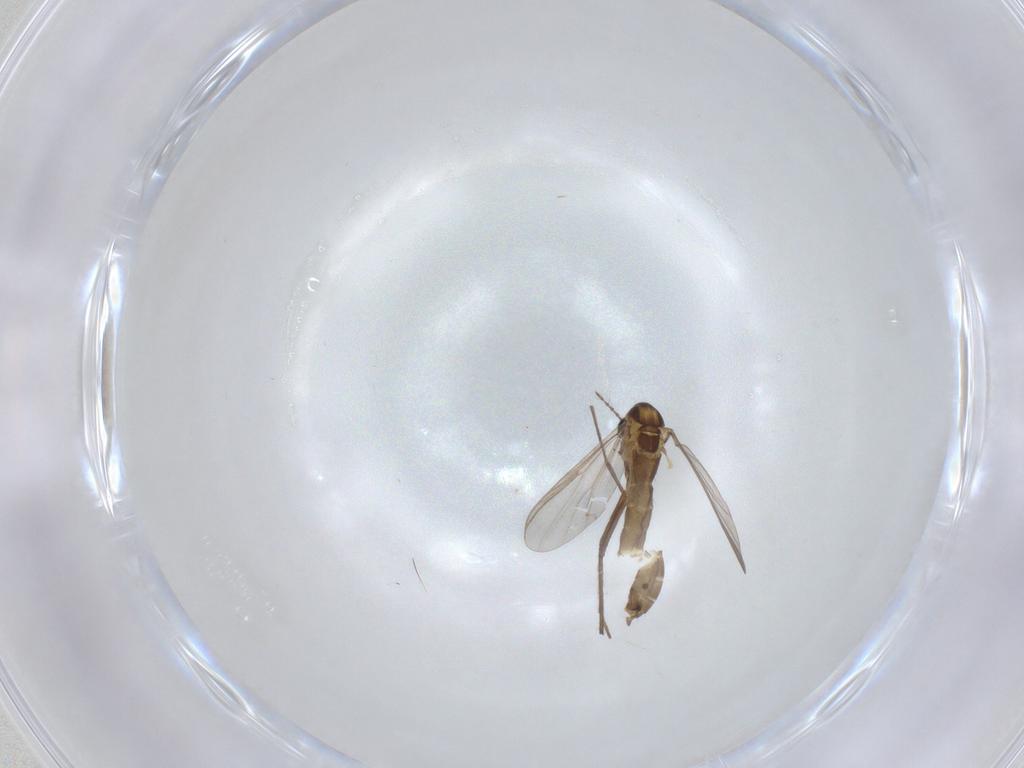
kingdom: Animalia
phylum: Arthropoda
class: Insecta
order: Diptera
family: Chironomidae
